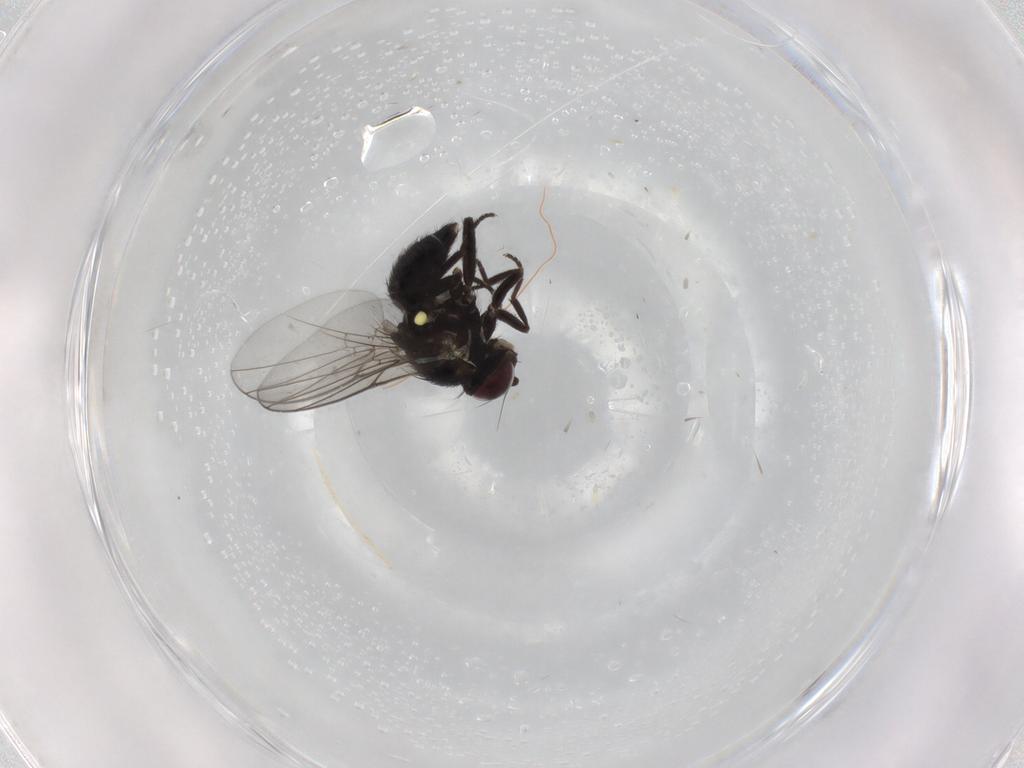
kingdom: Animalia
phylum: Arthropoda
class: Insecta
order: Diptera
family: Agromyzidae
